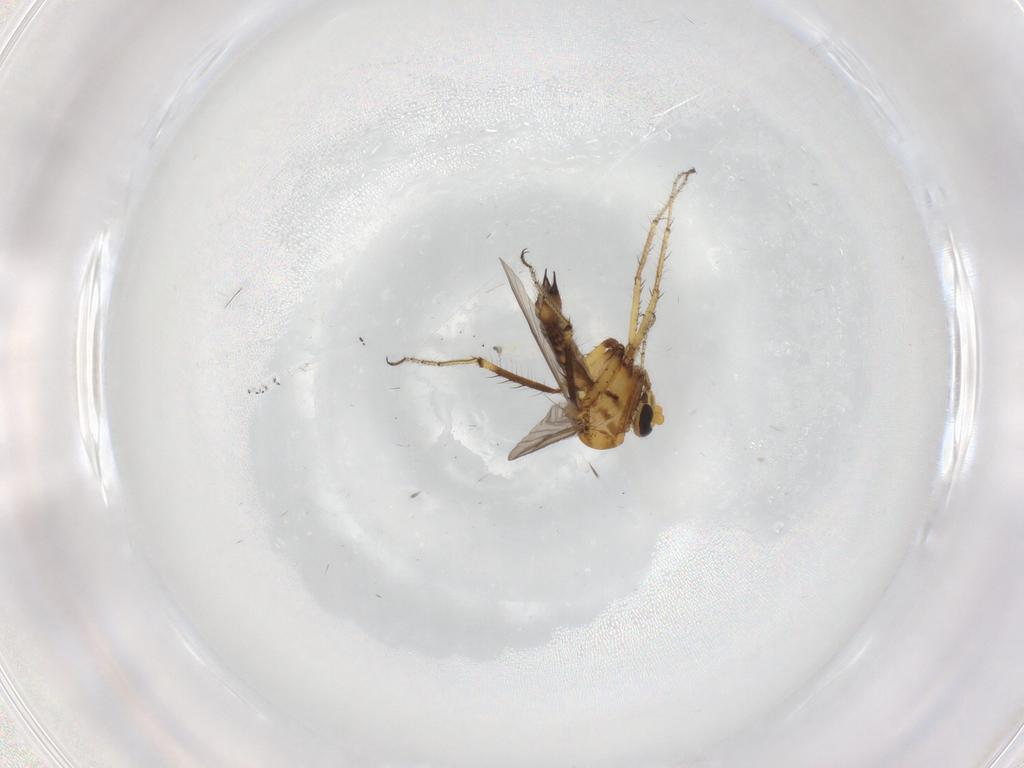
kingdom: Animalia
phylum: Arthropoda
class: Insecta
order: Diptera
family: Ceratopogonidae
